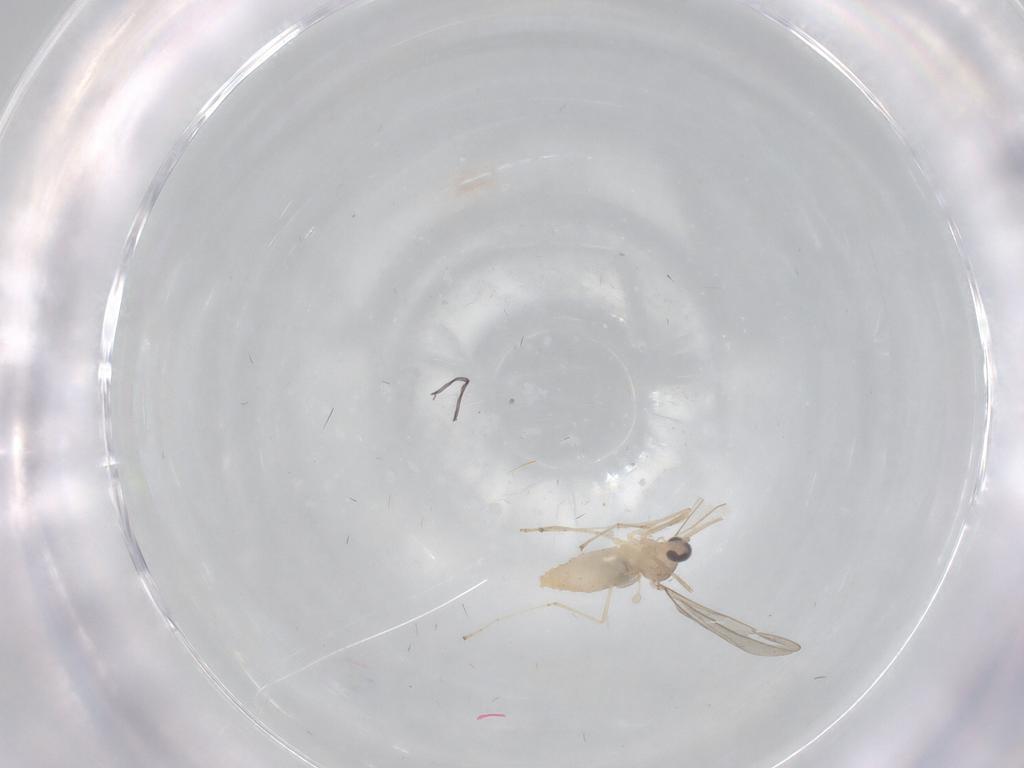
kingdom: Animalia
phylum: Arthropoda
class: Insecta
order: Diptera
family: Cecidomyiidae
